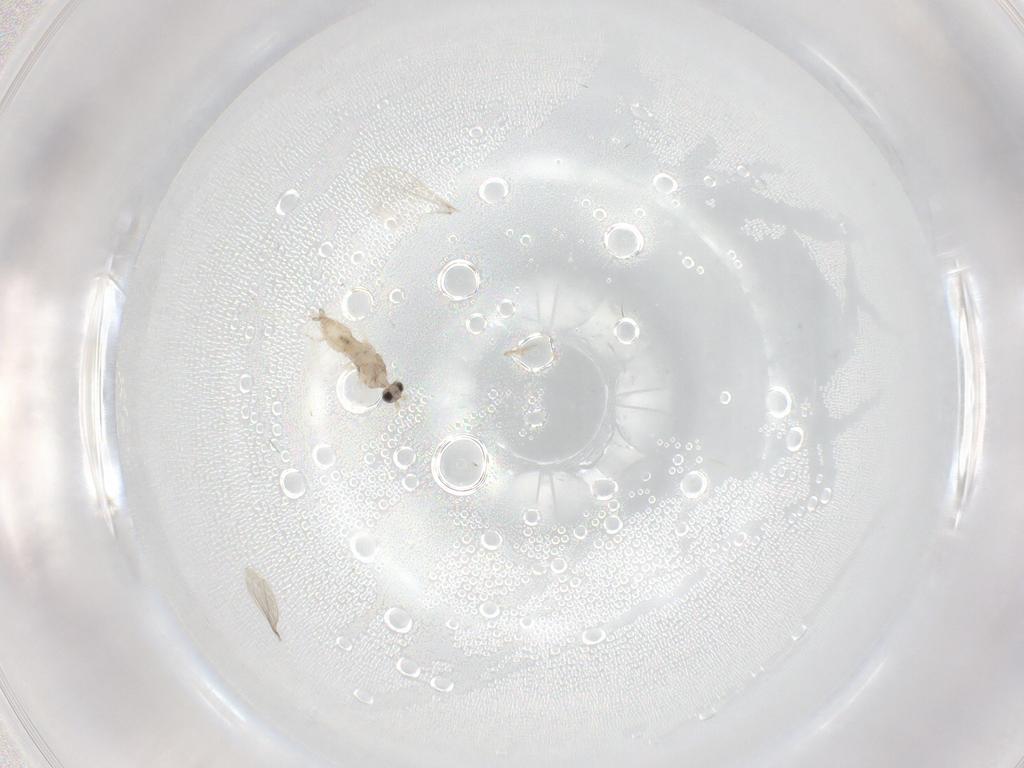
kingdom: Animalia
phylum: Arthropoda
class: Insecta
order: Diptera
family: Cecidomyiidae
